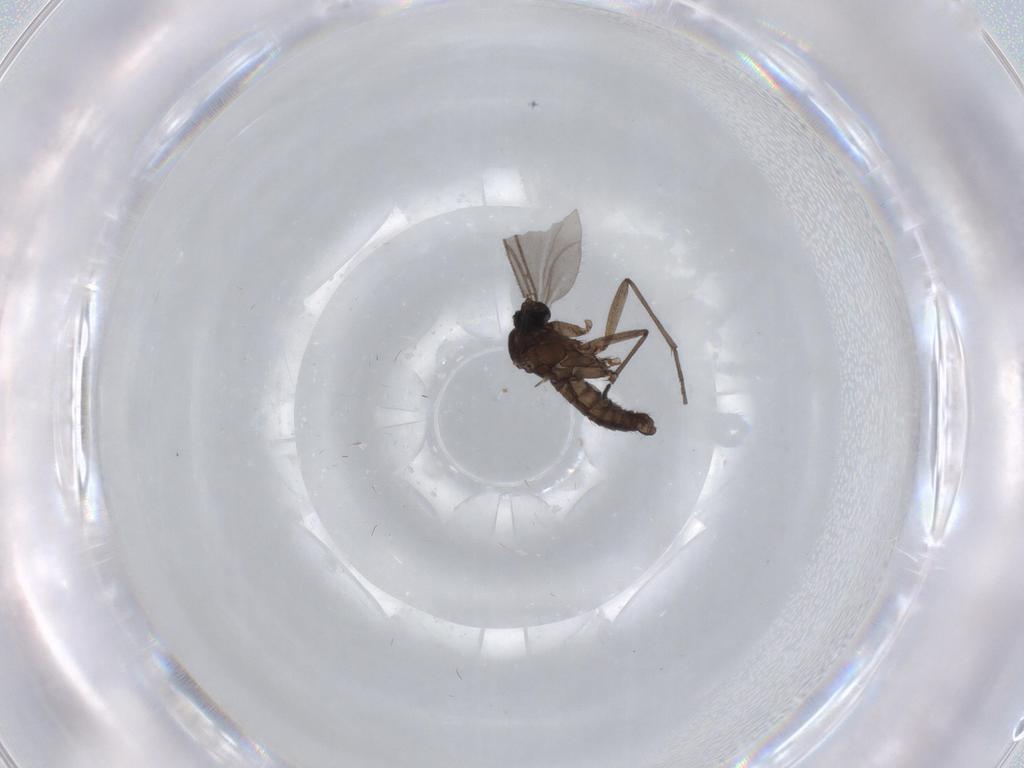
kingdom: Animalia
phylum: Arthropoda
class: Insecta
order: Diptera
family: Sciaridae
